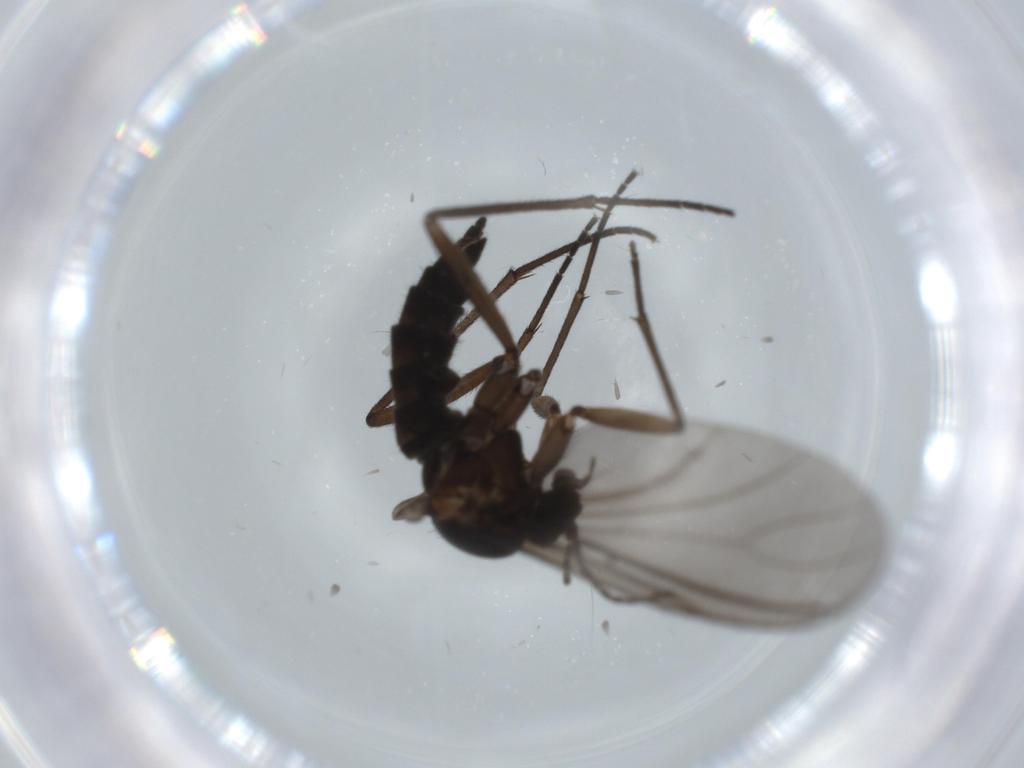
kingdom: Animalia
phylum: Arthropoda
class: Insecta
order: Diptera
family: Sciaridae
